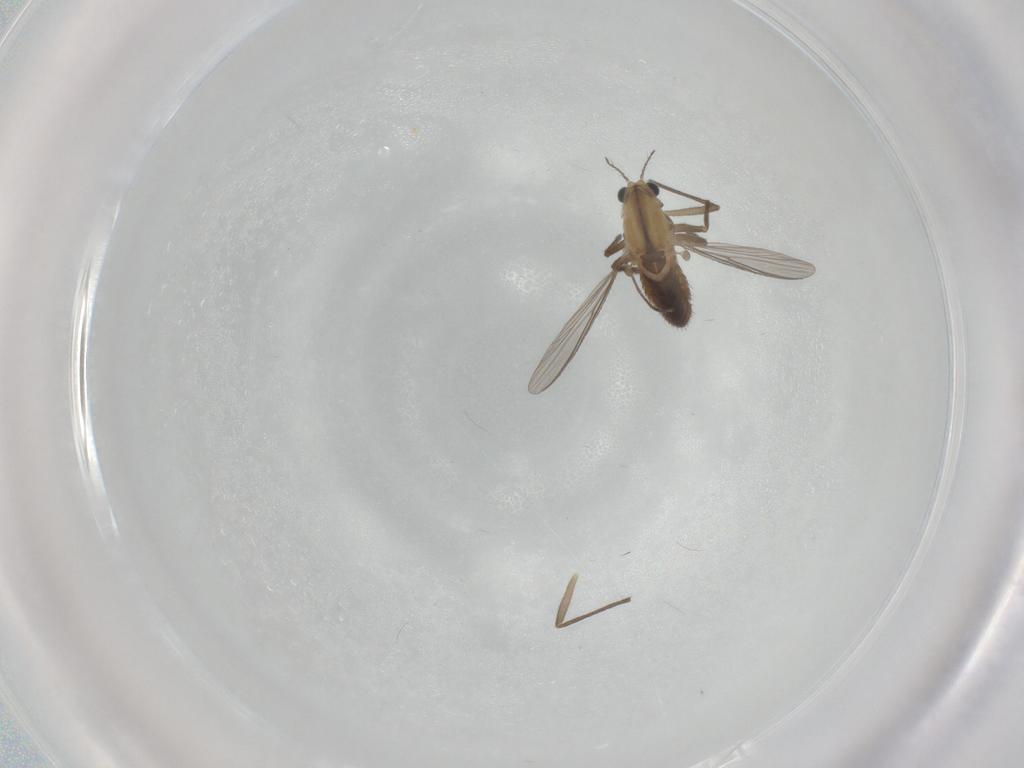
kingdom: Animalia
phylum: Arthropoda
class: Insecta
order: Diptera
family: Chironomidae
